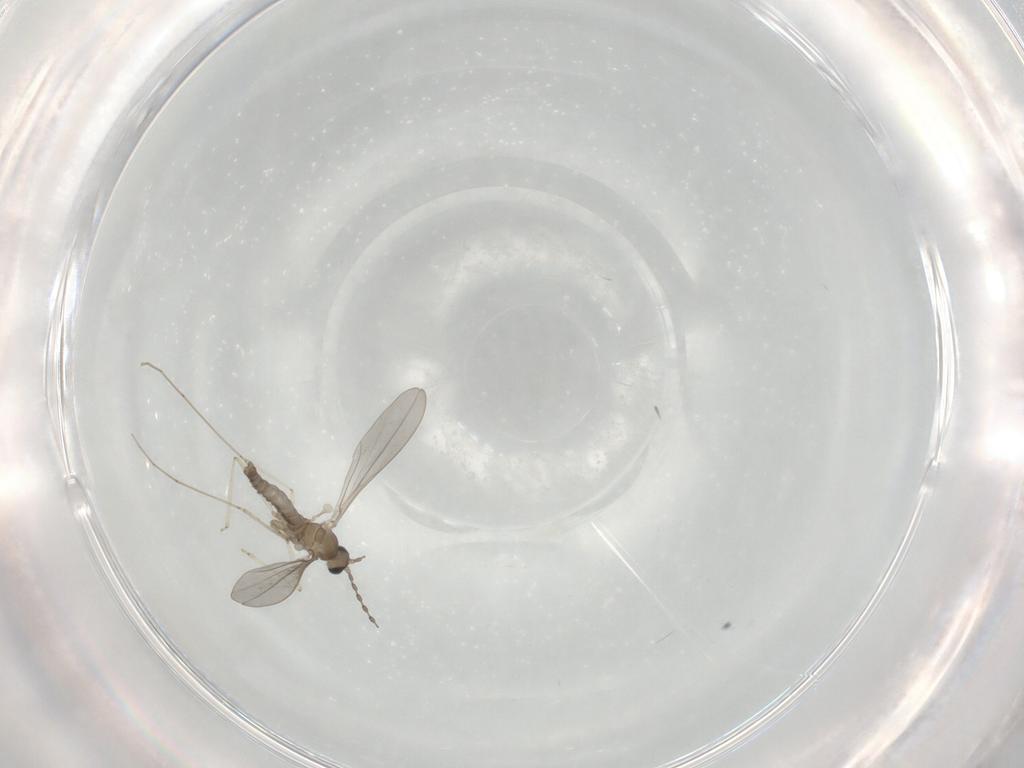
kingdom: Animalia
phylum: Arthropoda
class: Insecta
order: Diptera
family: Cecidomyiidae
